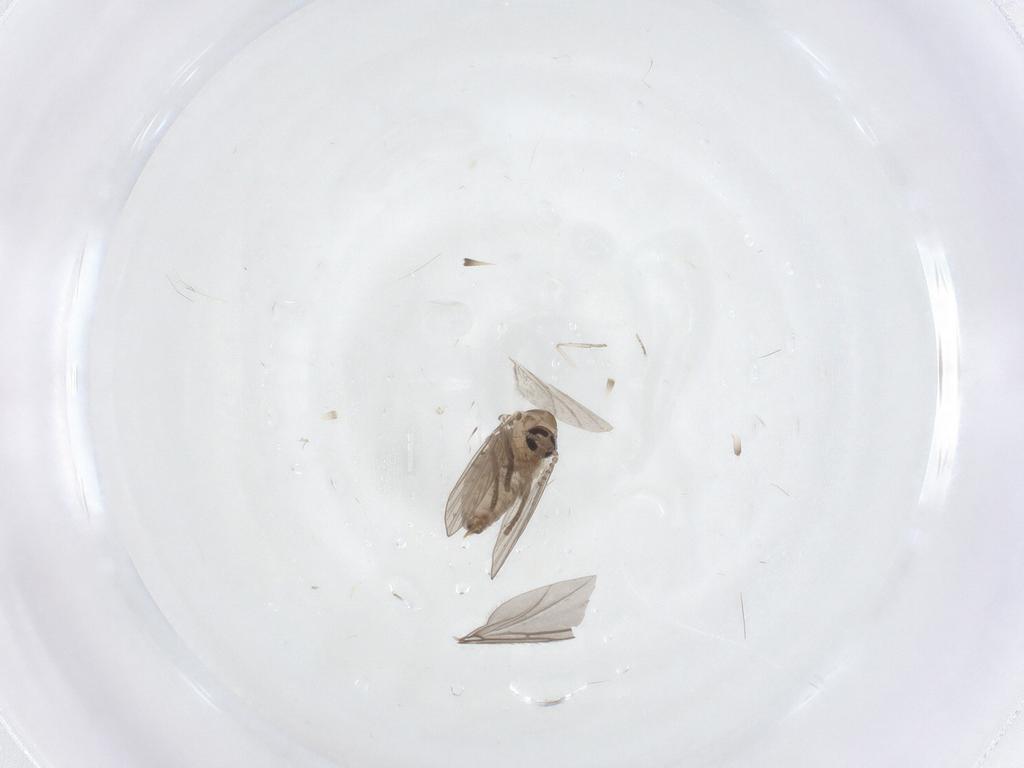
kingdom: Animalia
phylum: Arthropoda
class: Insecta
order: Diptera
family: Psychodidae
